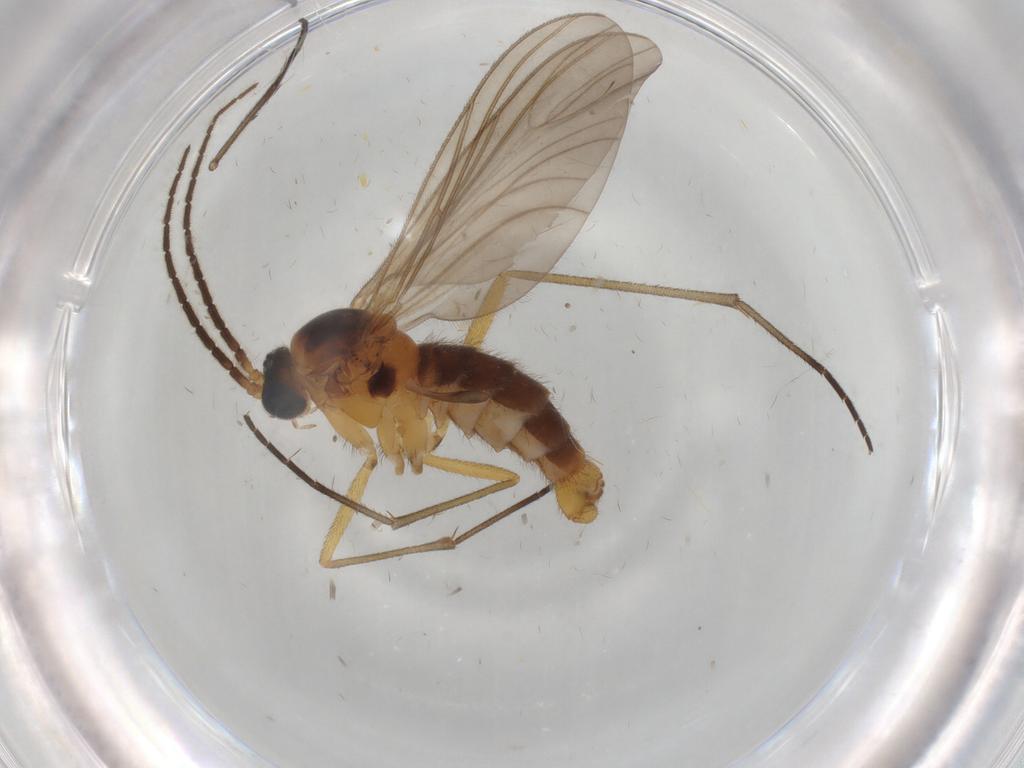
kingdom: Animalia
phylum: Arthropoda
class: Insecta
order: Diptera
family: Sciaridae
